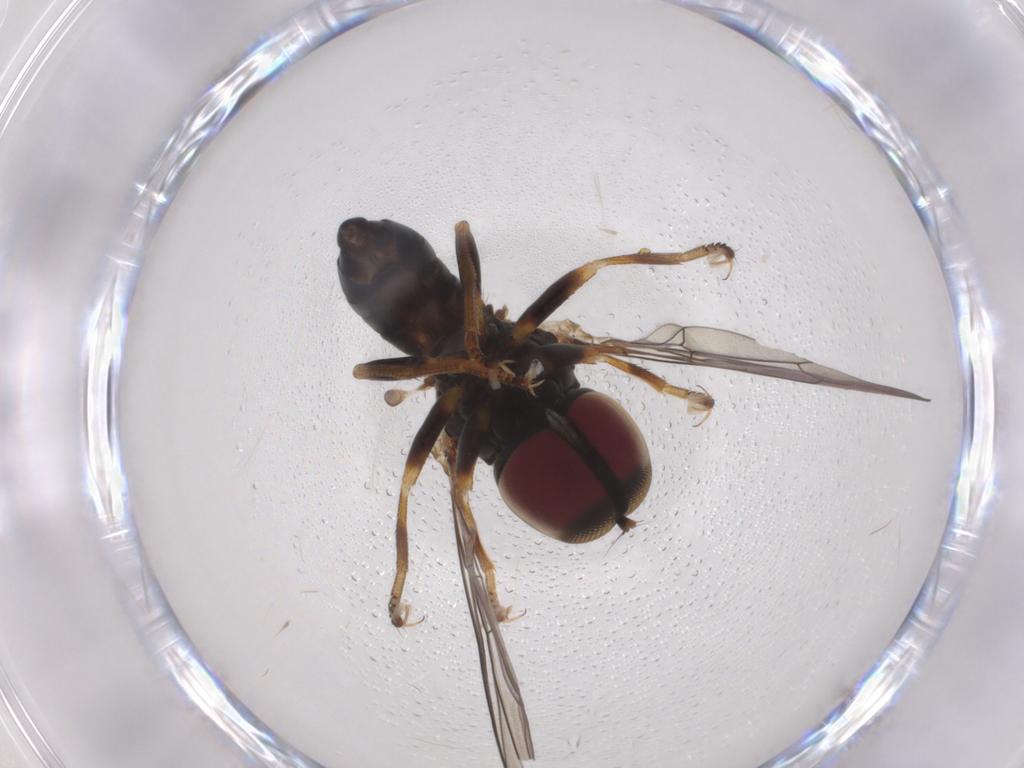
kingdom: Animalia
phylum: Arthropoda
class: Insecta
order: Diptera
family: Pipunculidae
